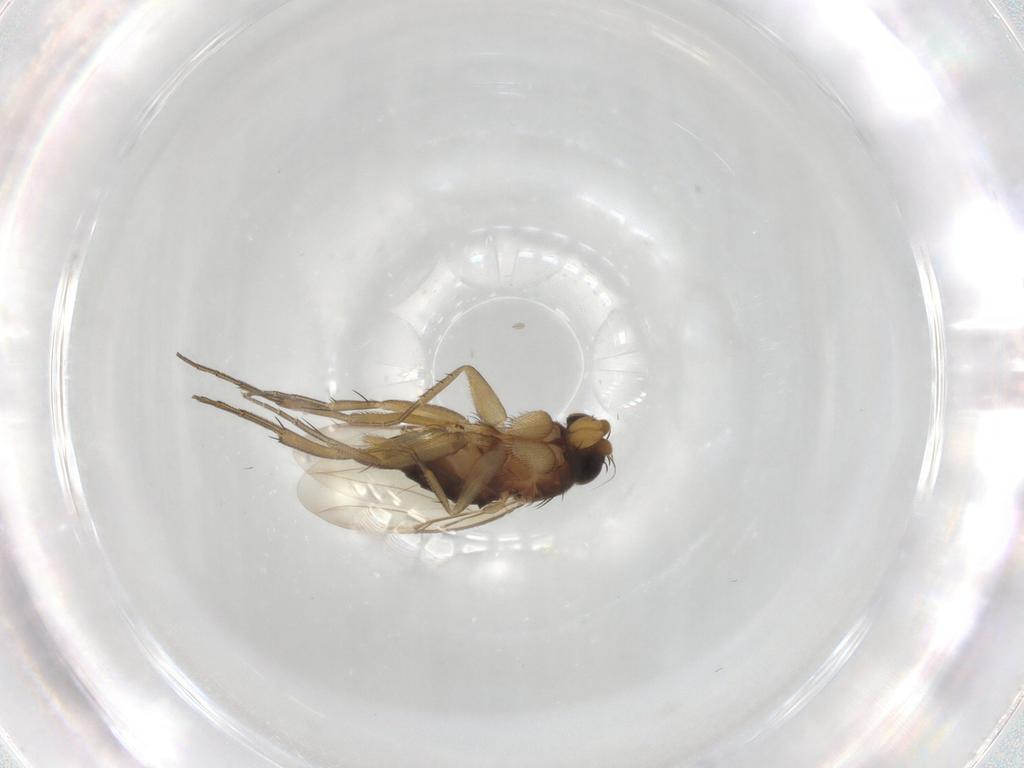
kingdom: Animalia
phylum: Arthropoda
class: Insecta
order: Diptera
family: Phoridae
